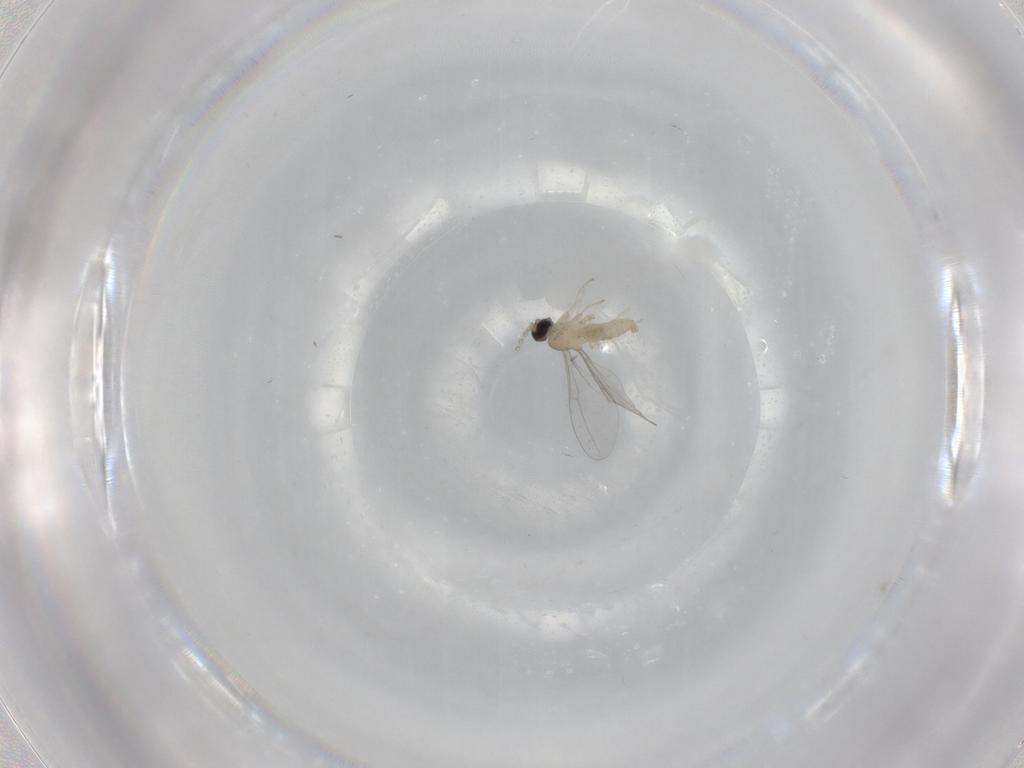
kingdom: Animalia
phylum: Arthropoda
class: Insecta
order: Diptera
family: Cecidomyiidae
